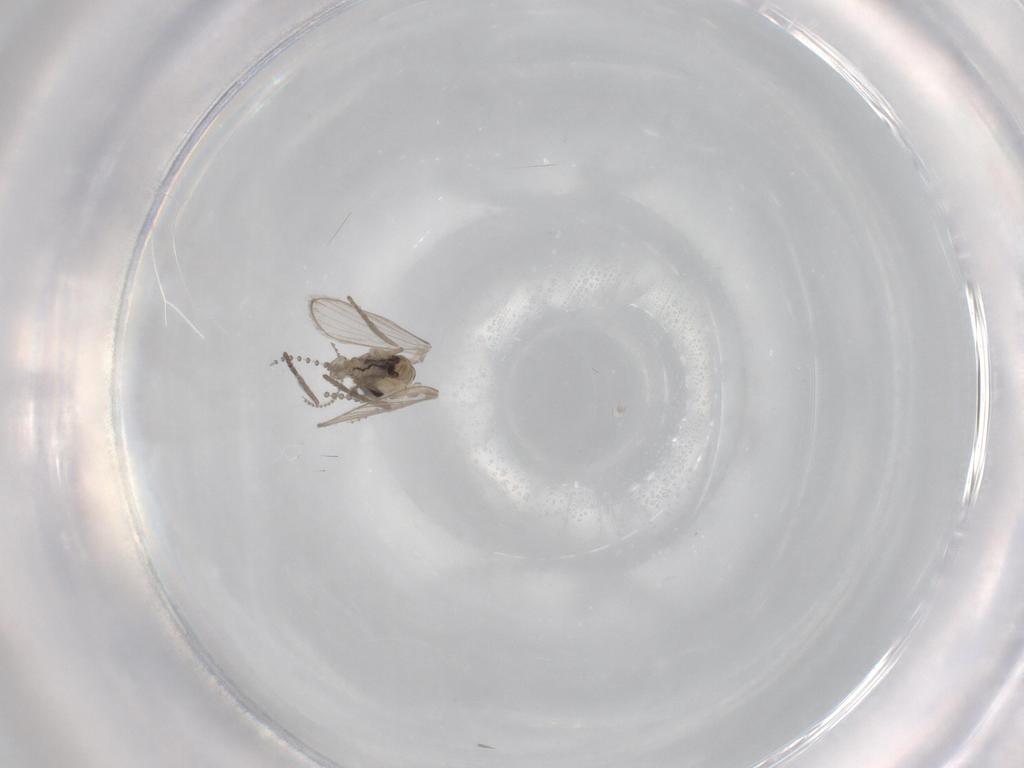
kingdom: Animalia
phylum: Arthropoda
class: Insecta
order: Diptera
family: Psychodidae
